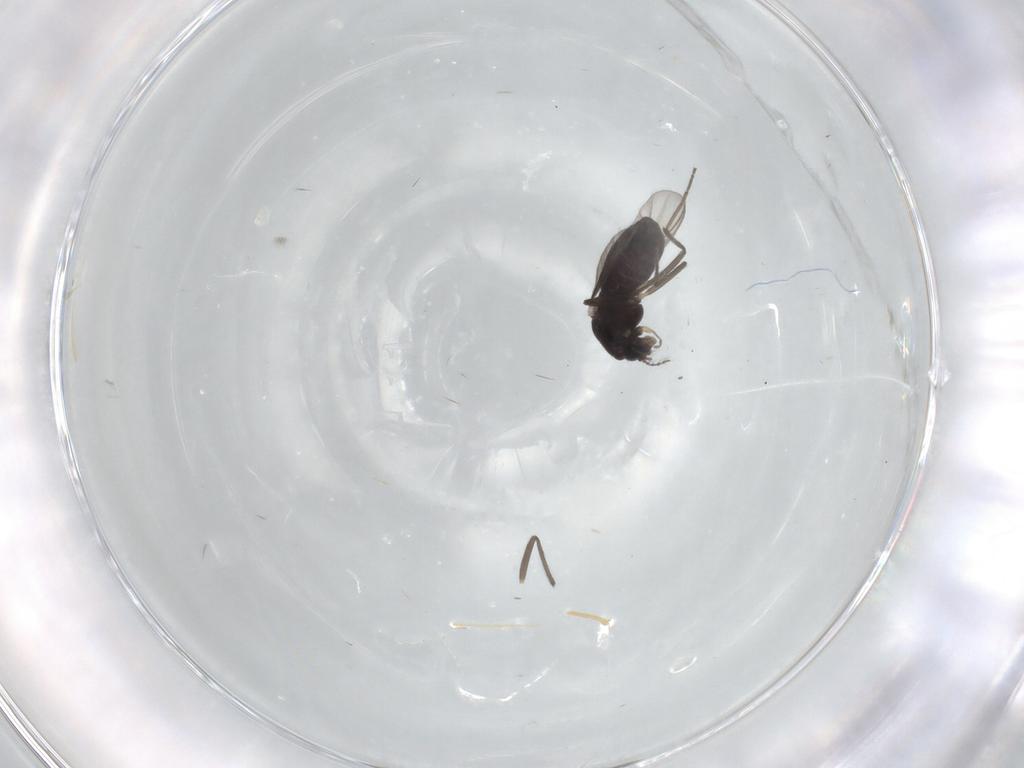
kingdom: Animalia
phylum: Arthropoda
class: Insecta
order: Diptera
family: Chironomidae
